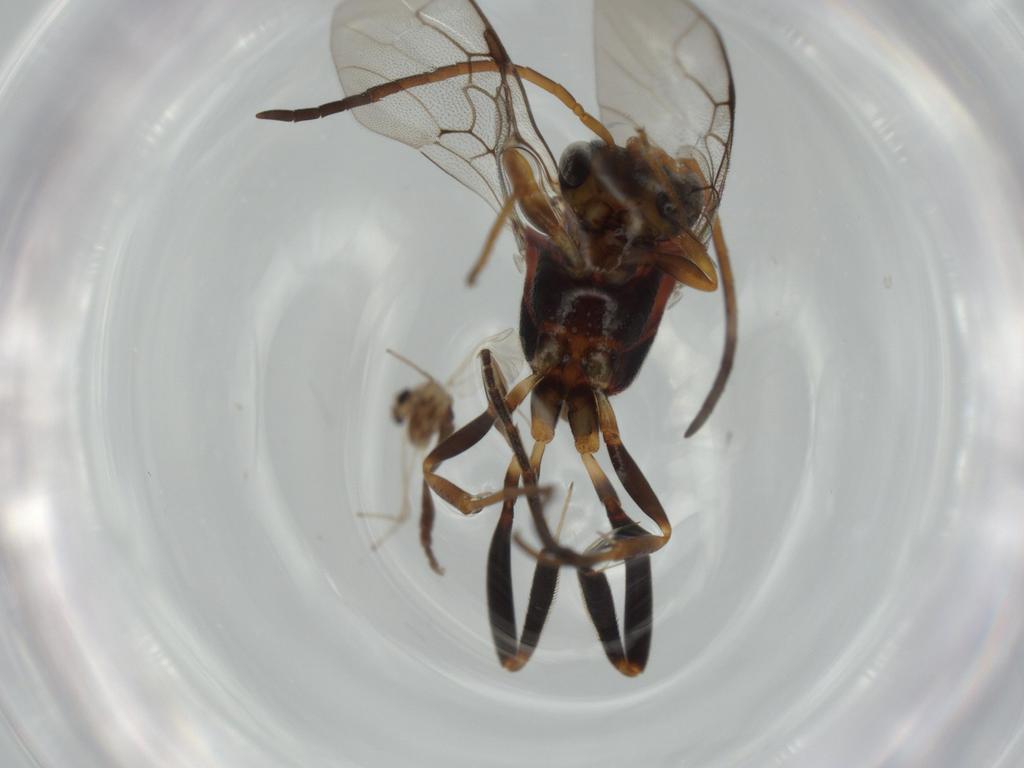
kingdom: Animalia
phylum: Arthropoda
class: Insecta
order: Diptera
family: Chironomidae
